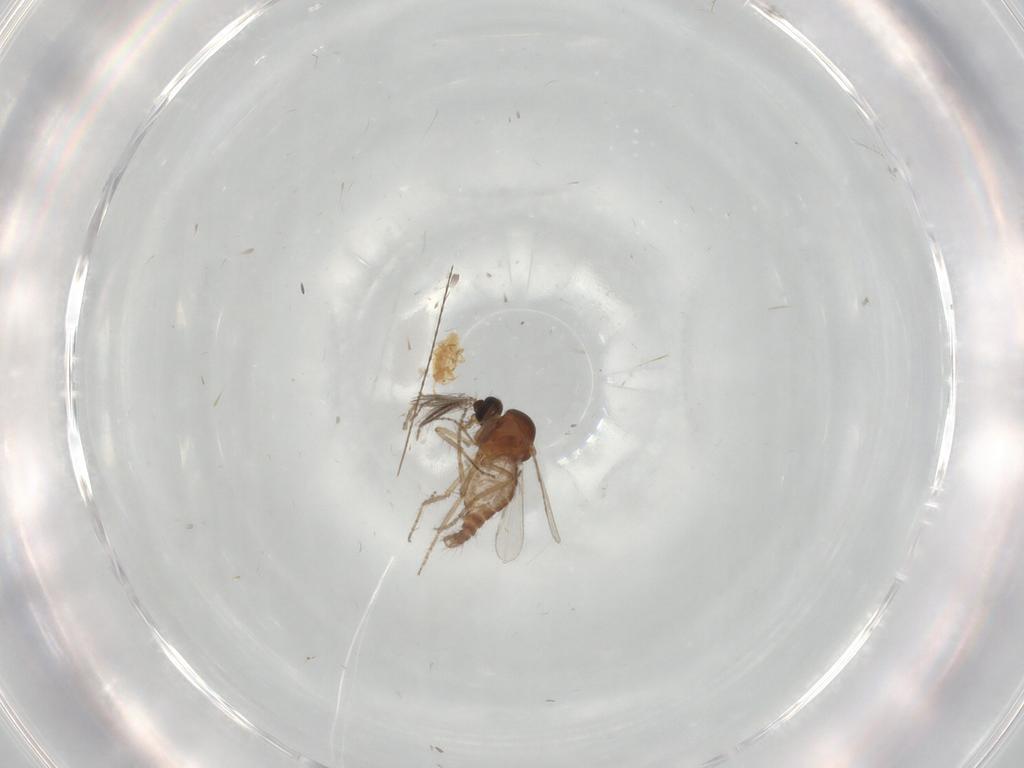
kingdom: Animalia
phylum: Arthropoda
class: Insecta
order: Diptera
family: Ceratopogonidae
